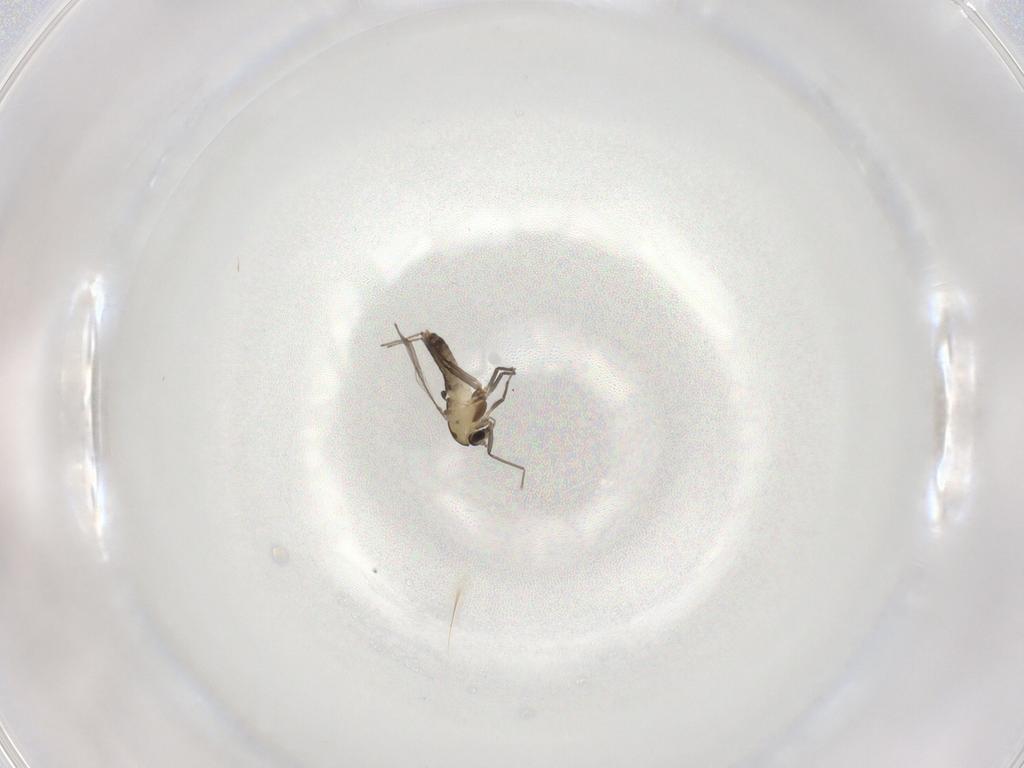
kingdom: Animalia
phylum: Arthropoda
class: Insecta
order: Diptera
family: Chironomidae
